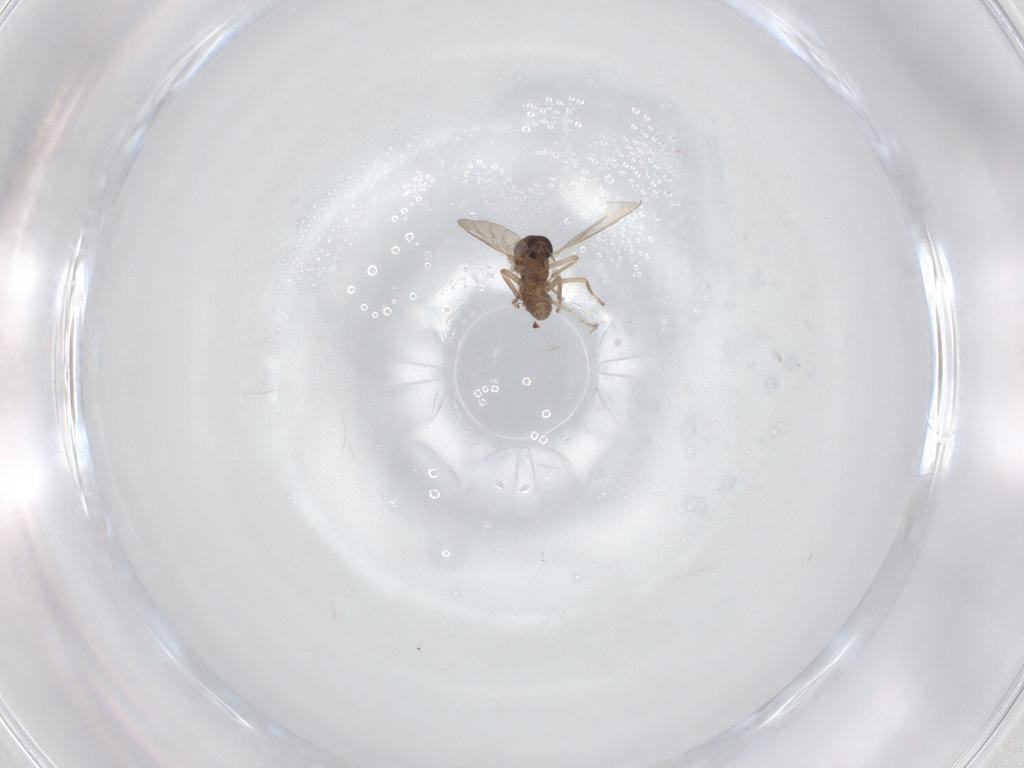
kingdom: Animalia
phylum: Arthropoda
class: Insecta
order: Diptera
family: Ceratopogonidae
